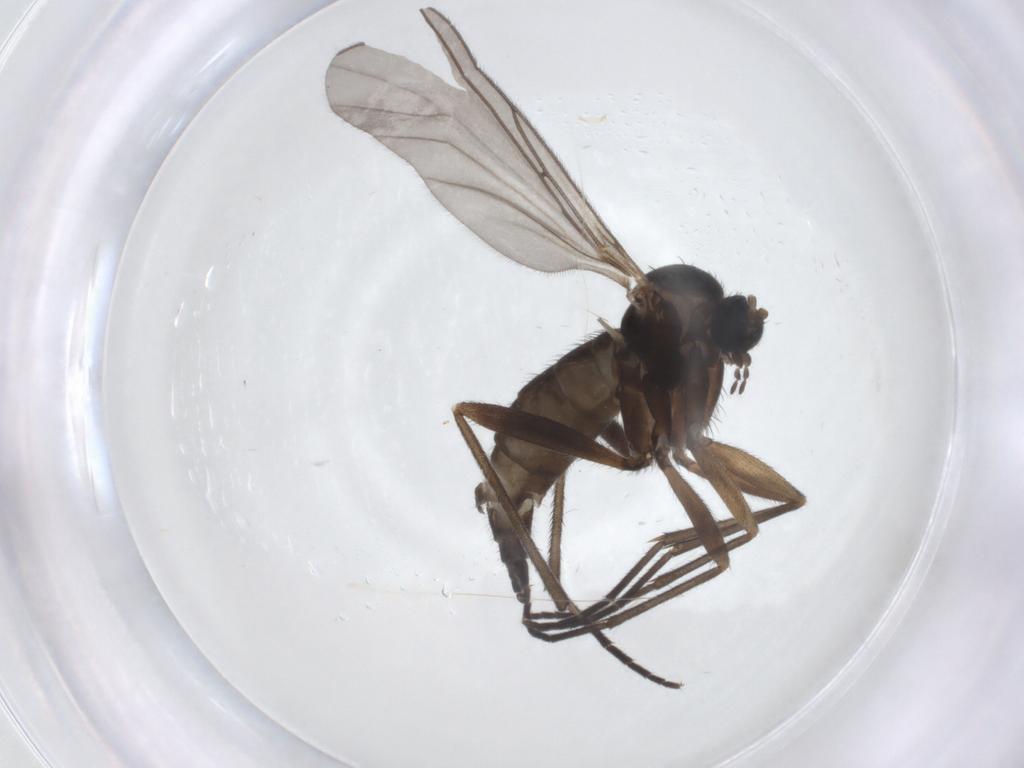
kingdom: Animalia
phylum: Arthropoda
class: Insecta
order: Diptera
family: Sciaridae
